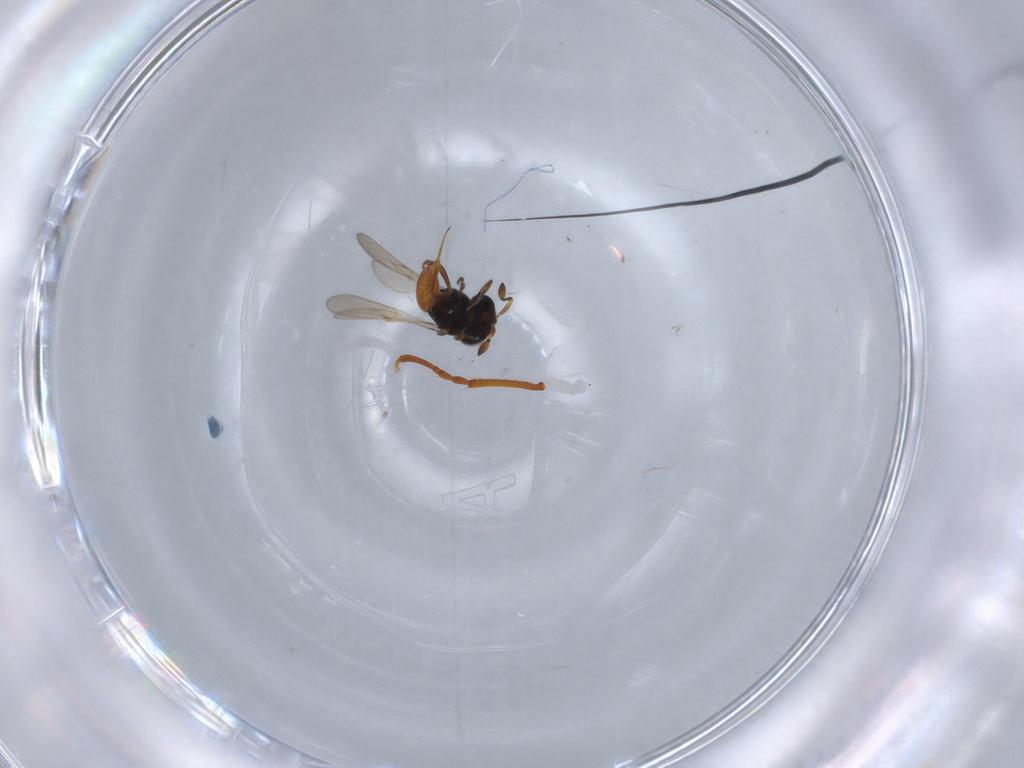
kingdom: Animalia
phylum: Arthropoda
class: Insecta
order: Hymenoptera
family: Scelionidae
